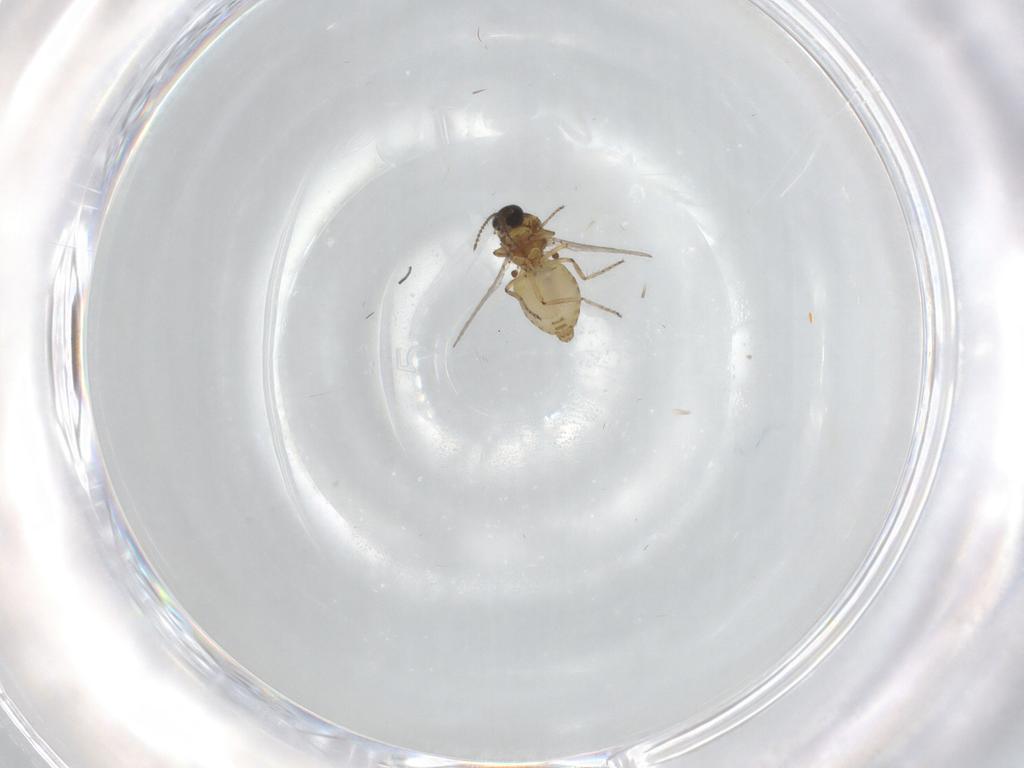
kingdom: Animalia
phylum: Arthropoda
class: Insecta
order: Diptera
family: Ceratopogonidae
